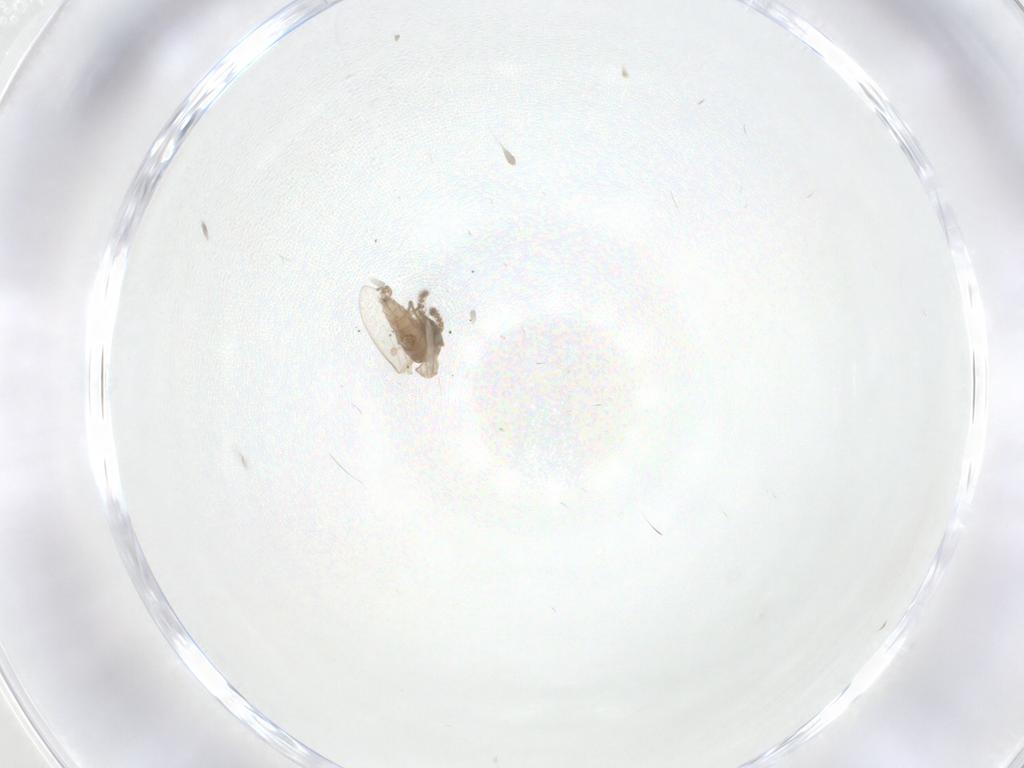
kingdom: Animalia
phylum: Arthropoda
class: Insecta
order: Diptera
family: Psychodidae
